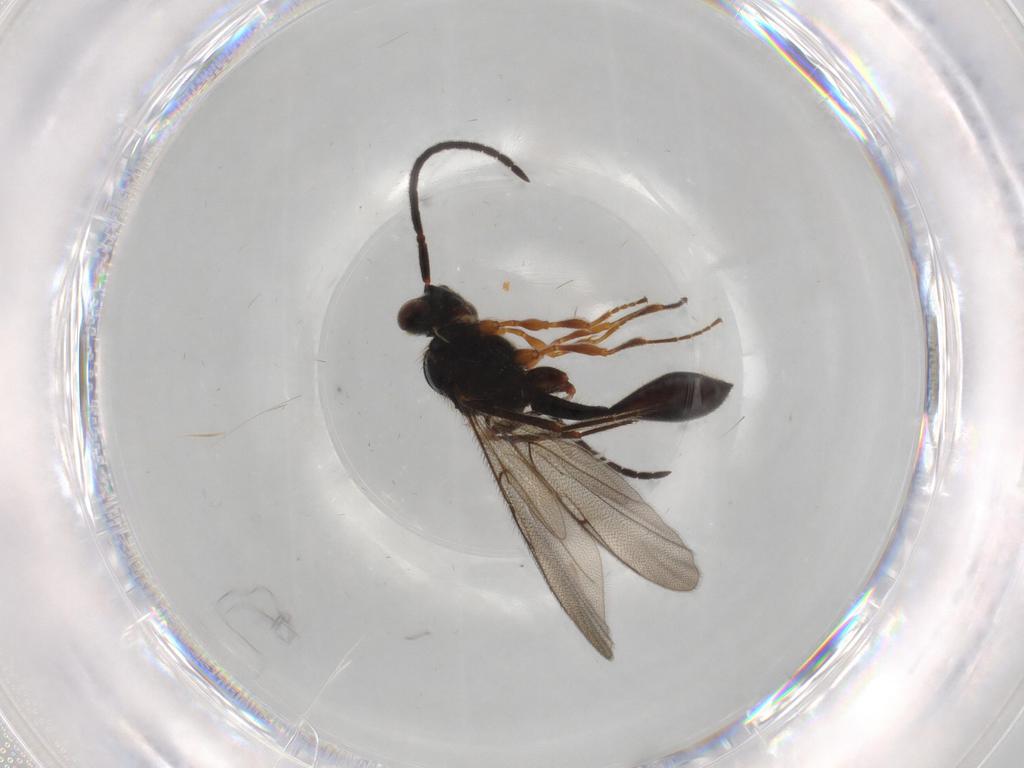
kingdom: Animalia
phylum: Arthropoda
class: Insecta
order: Hymenoptera
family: Diapriidae
